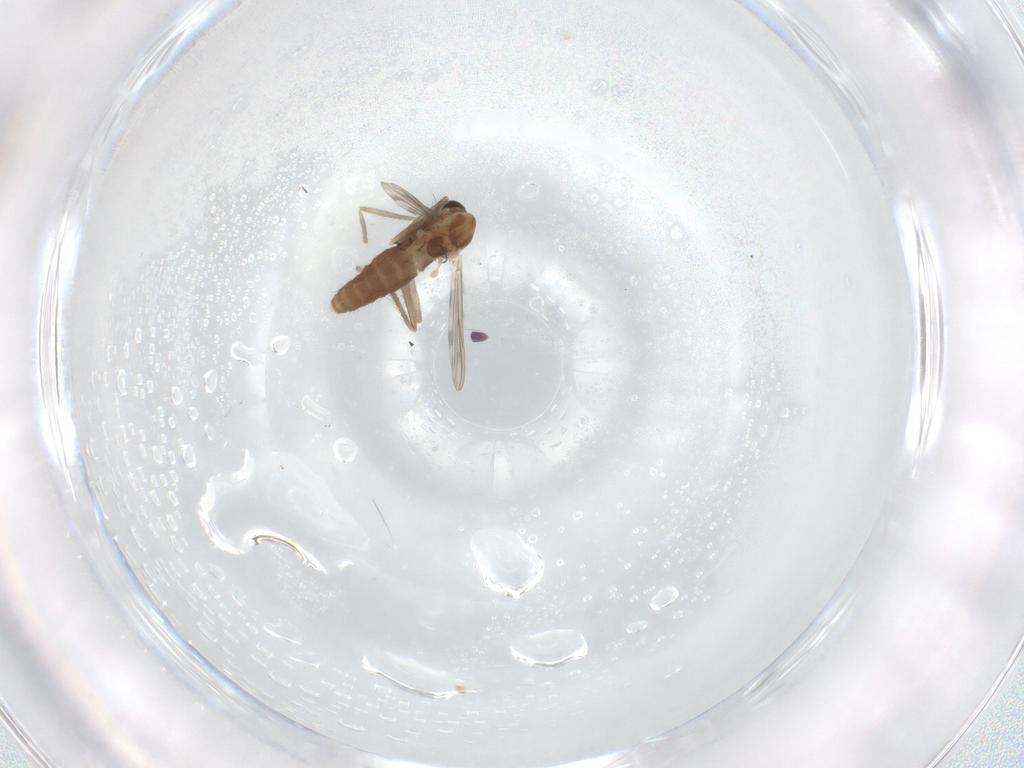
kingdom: Animalia
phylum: Arthropoda
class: Insecta
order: Diptera
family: Chironomidae
